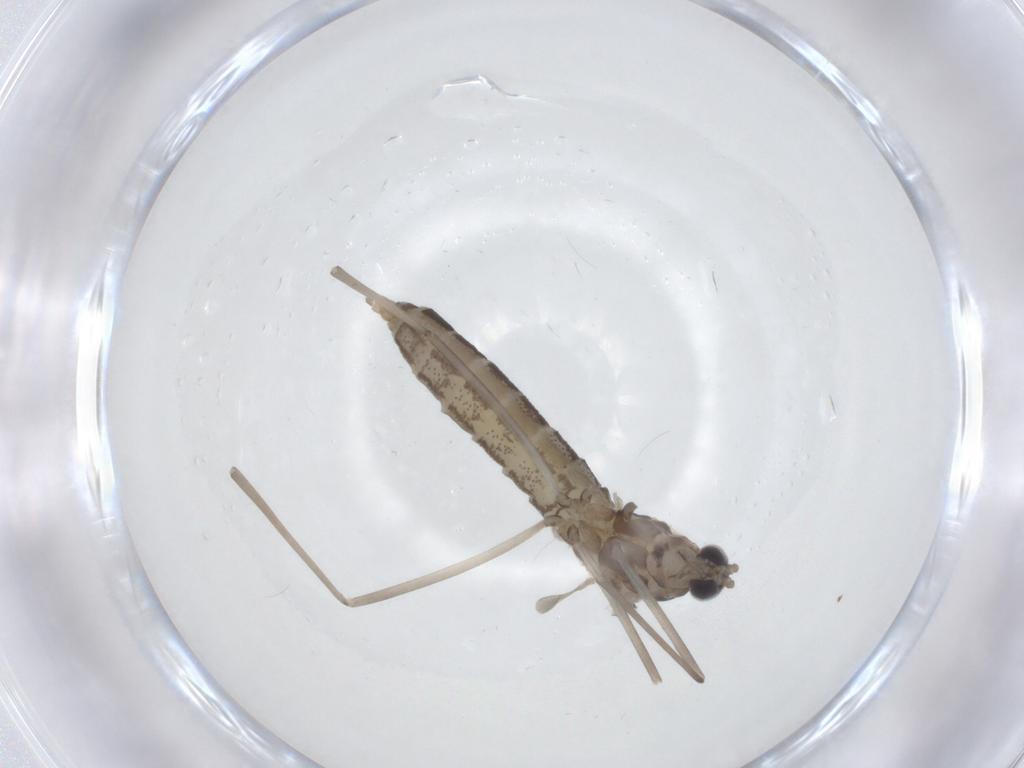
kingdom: Animalia
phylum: Arthropoda
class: Insecta
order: Diptera
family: Cecidomyiidae
